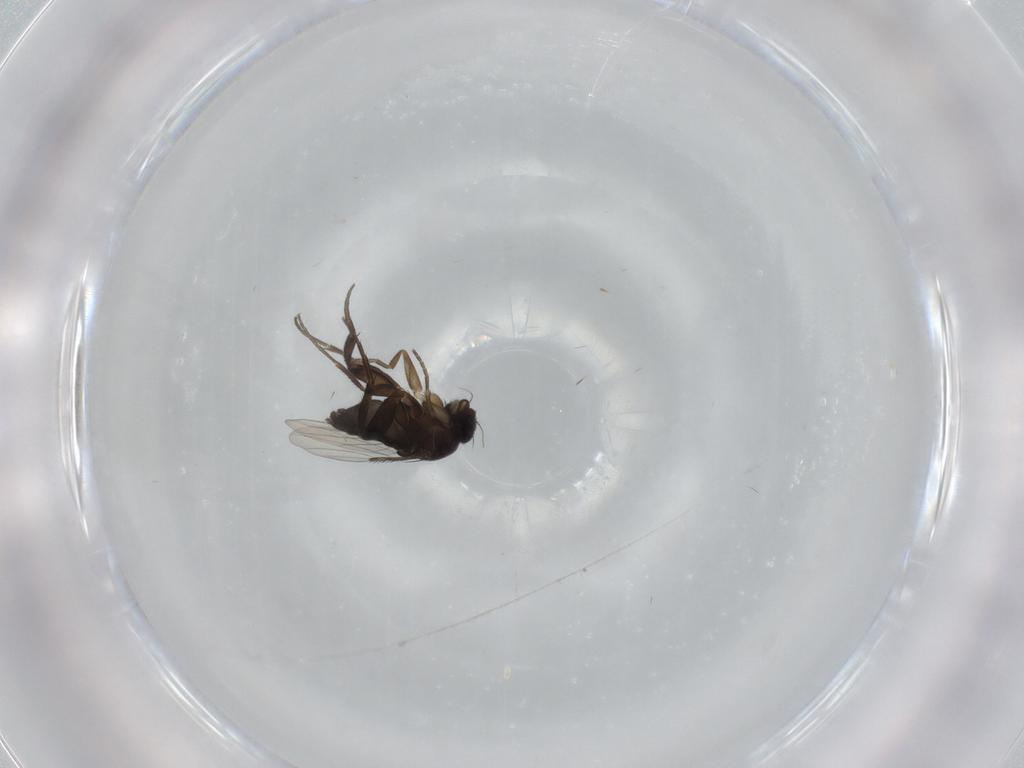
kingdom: Animalia
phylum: Arthropoda
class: Insecta
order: Diptera
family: Phoridae
